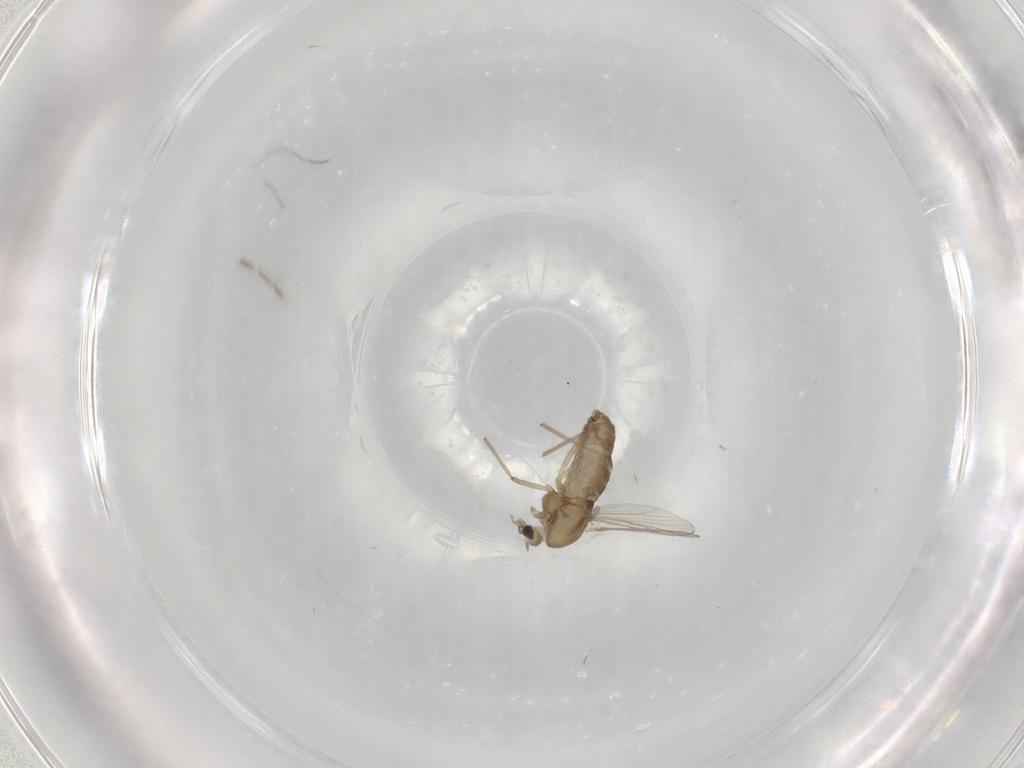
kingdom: Animalia
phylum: Arthropoda
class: Insecta
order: Diptera
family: Chironomidae
